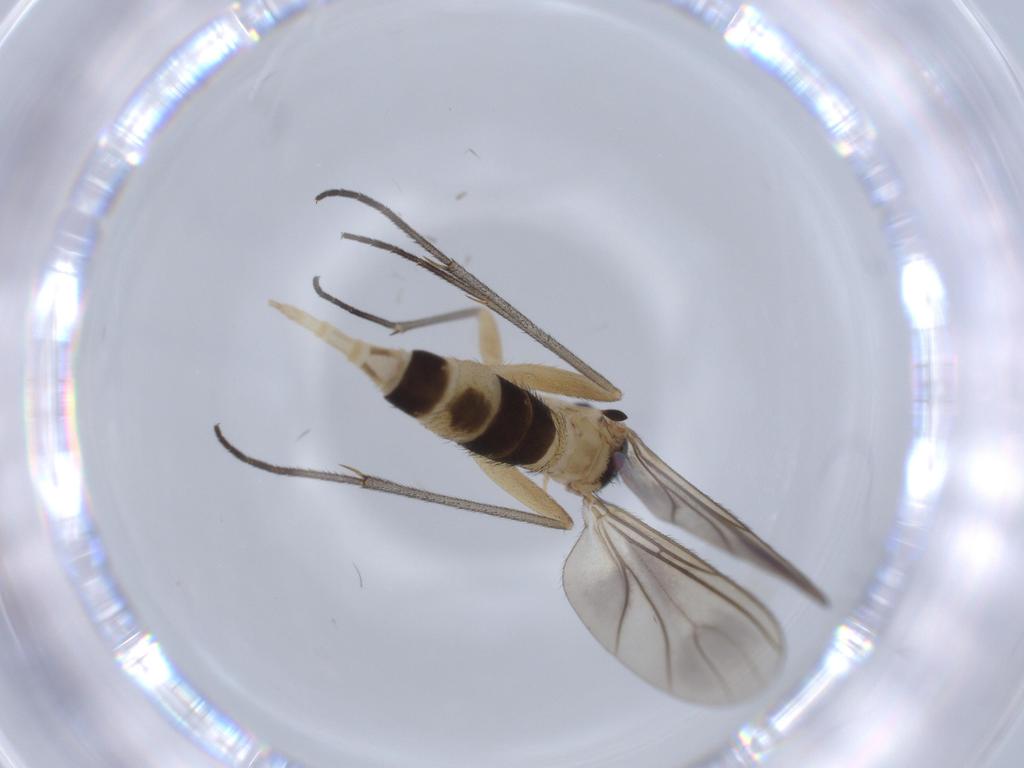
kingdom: Animalia
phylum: Arthropoda
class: Insecta
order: Diptera
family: Sciaridae
